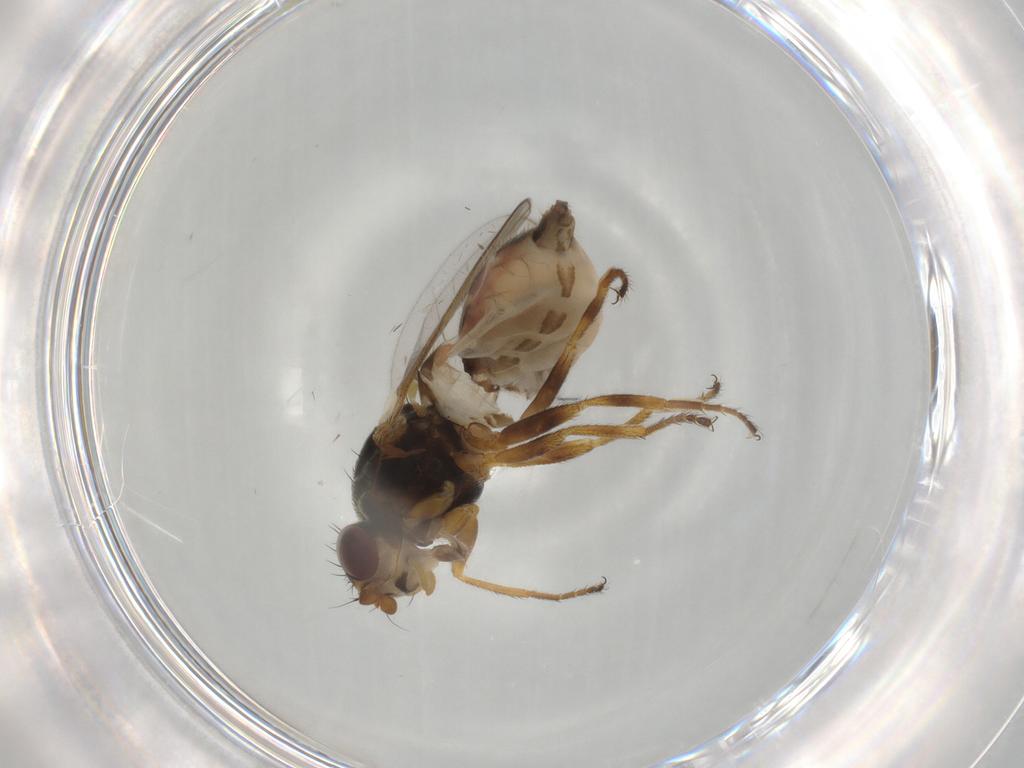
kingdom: Animalia
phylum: Arthropoda
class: Insecta
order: Diptera
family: Chloropidae
